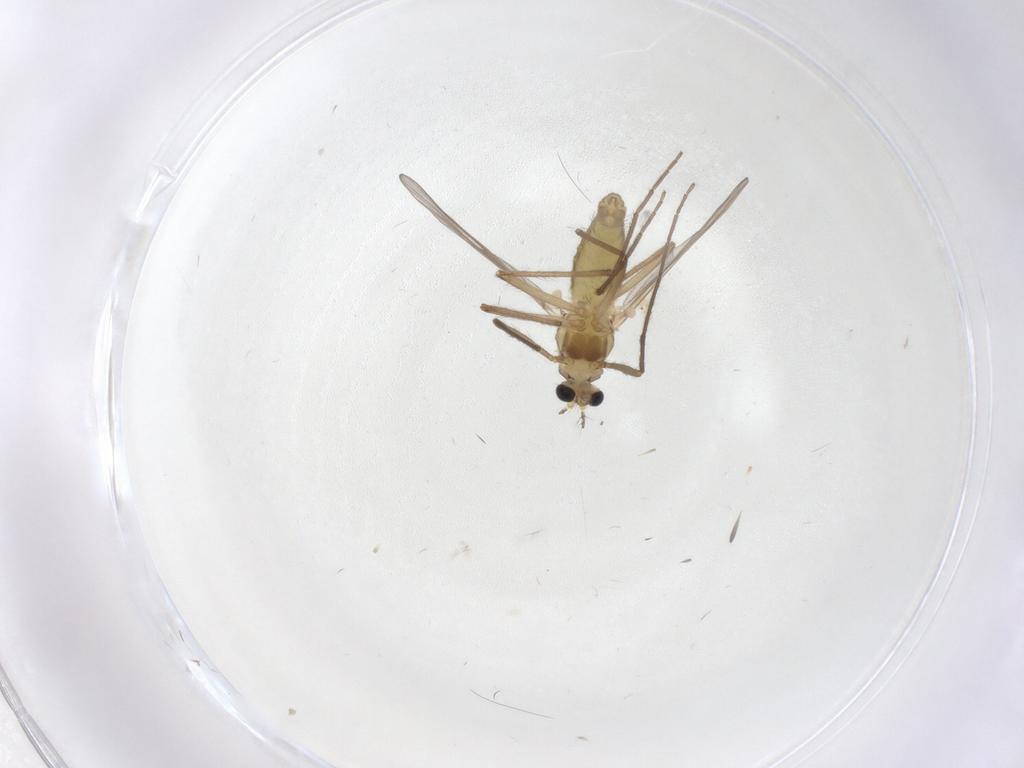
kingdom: Animalia
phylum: Arthropoda
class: Insecta
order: Diptera
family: Chironomidae
